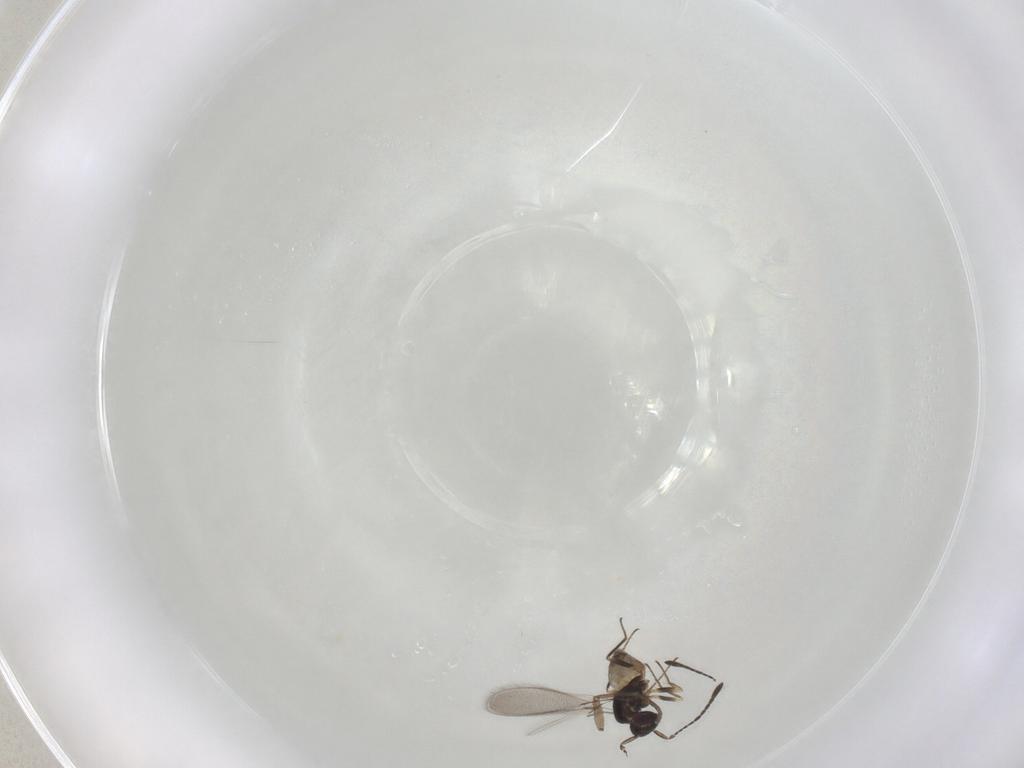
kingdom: Animalia
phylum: Arthropoda
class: Insecta
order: Hymenoptera
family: Mymaridae
